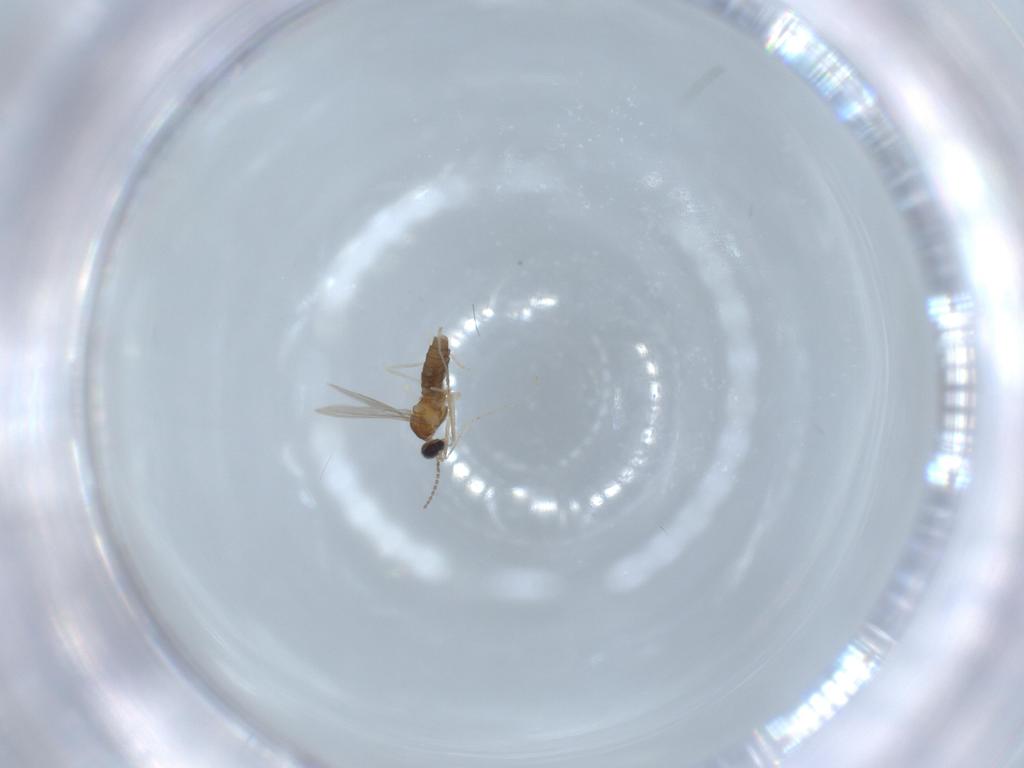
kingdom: Animalia
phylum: Arthropoda
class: Insecta
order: Diptera
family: Cecidomyiidae
